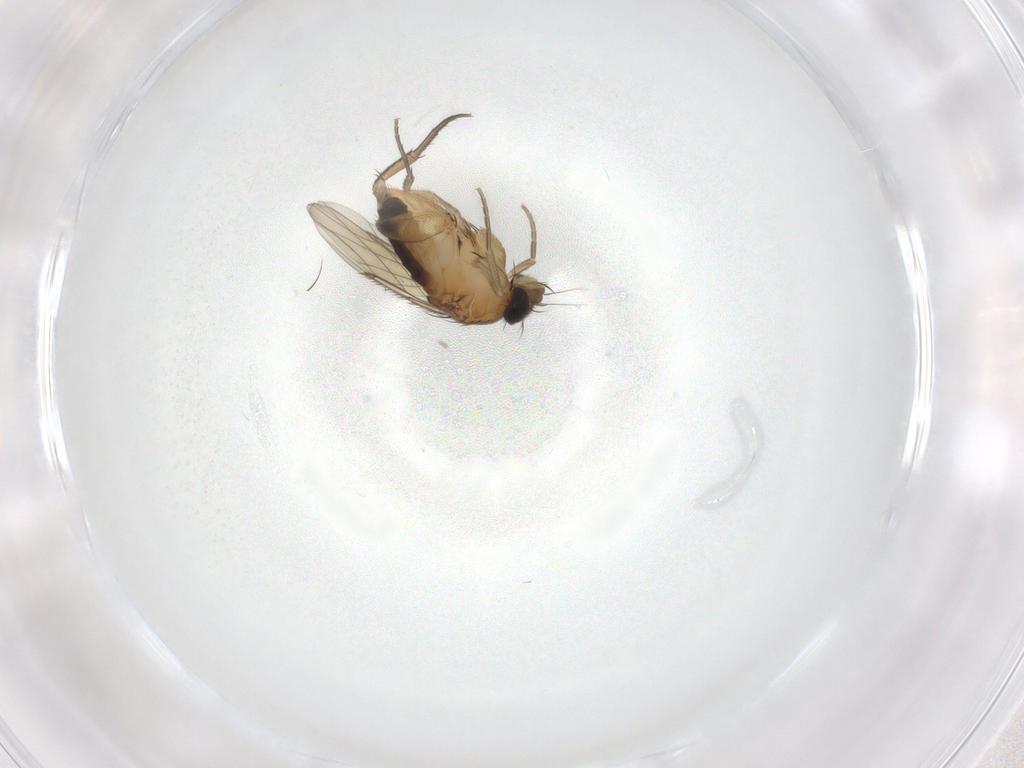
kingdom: Animalia
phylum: Arthropoda
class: Insecta
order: Diptera
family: Phoridae
